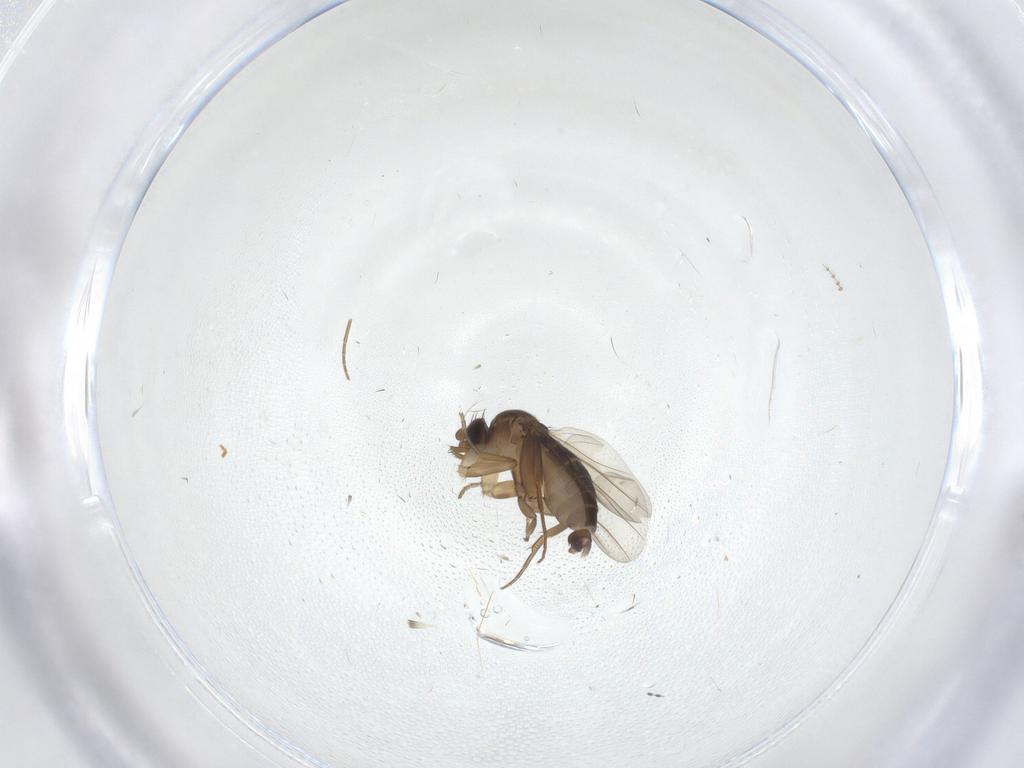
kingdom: Animalia
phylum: Arthropoda
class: Insecta
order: Diptera
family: Phoridae
